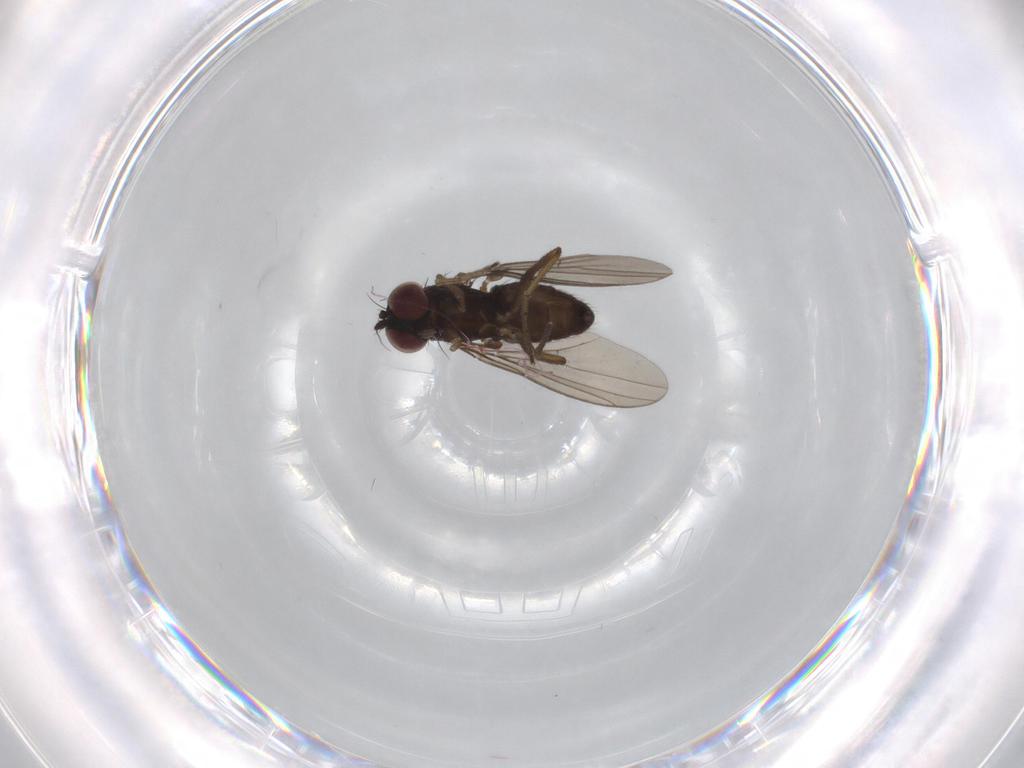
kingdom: Animalia
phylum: Arthropoda
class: Insecta
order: Diptera
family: Dolichopodidae
